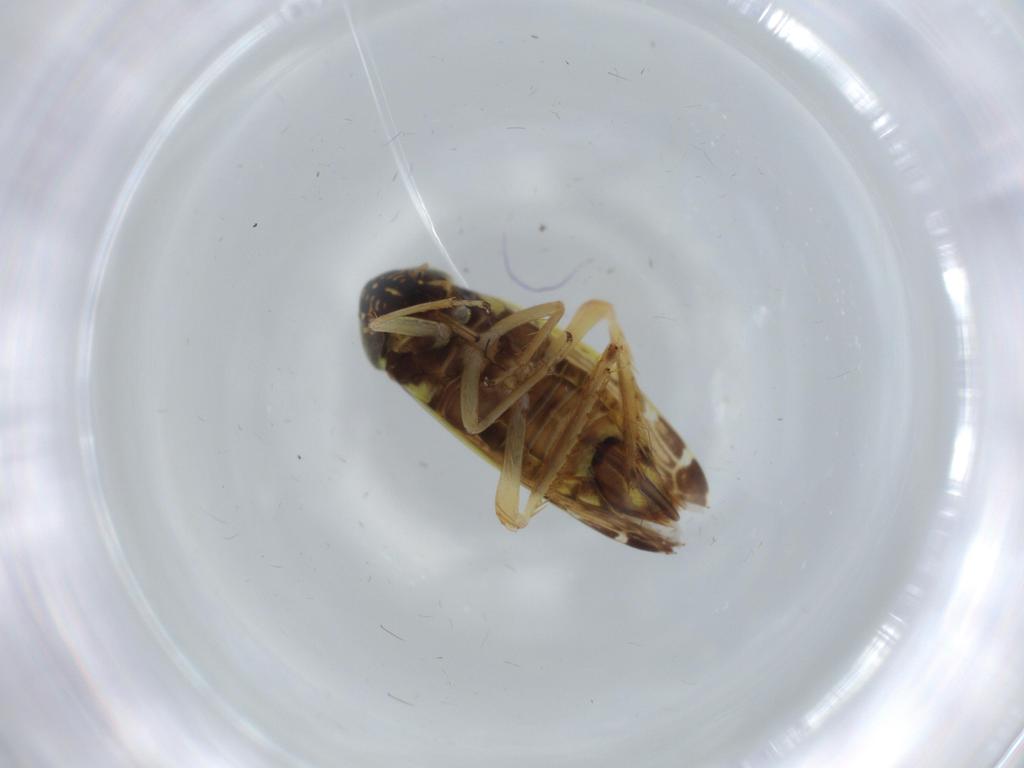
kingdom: Animalia
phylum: Arthropoda
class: Insecta
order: Hemiptera
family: Cicadellidae
